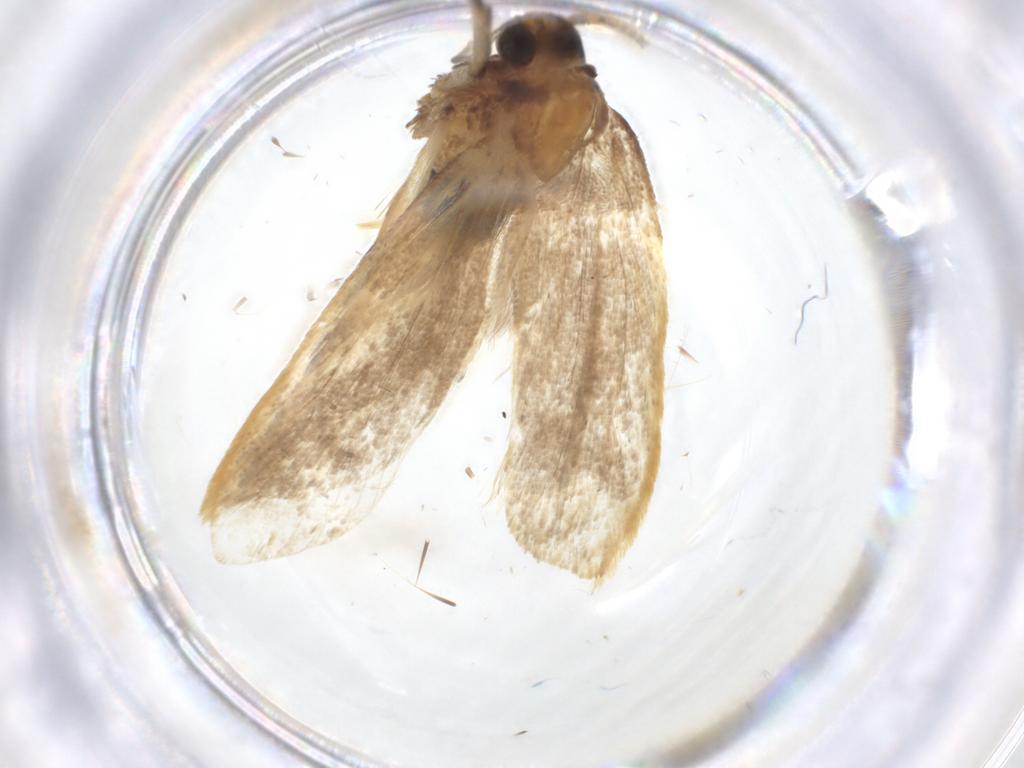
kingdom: Animalia
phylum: Arthropoda
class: Insecta
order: Lepidoptera
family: Lecithoceridae
